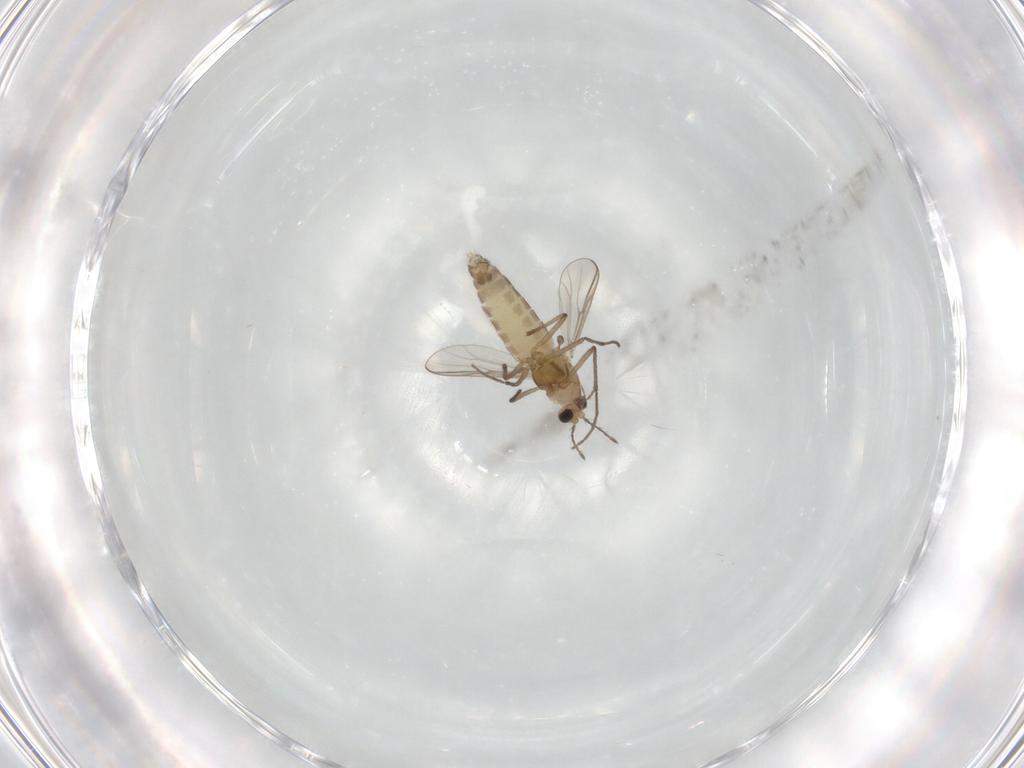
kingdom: Animalia
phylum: Arthropoda
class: Insecta
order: Diptera
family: Chironomidae
